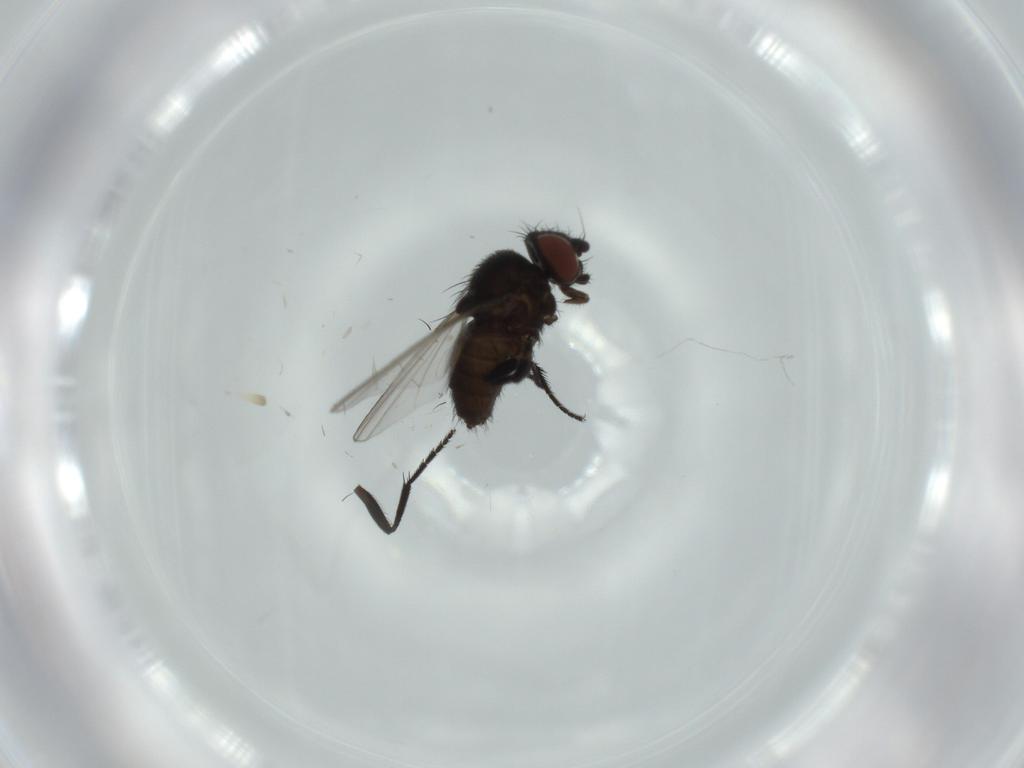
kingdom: Animalia
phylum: Arthropoda
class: Insecta
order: Diptera
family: Milichiidae
